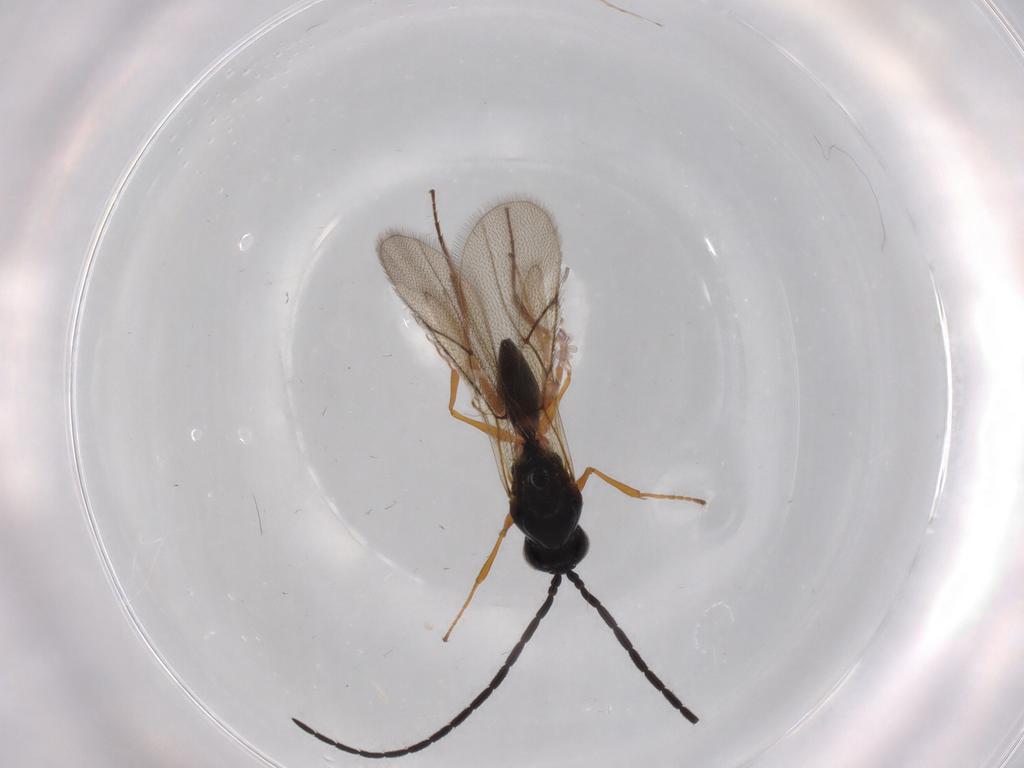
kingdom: Animalia
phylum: Arthropoda
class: Insecta
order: Hymenoptera
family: Figitidae
